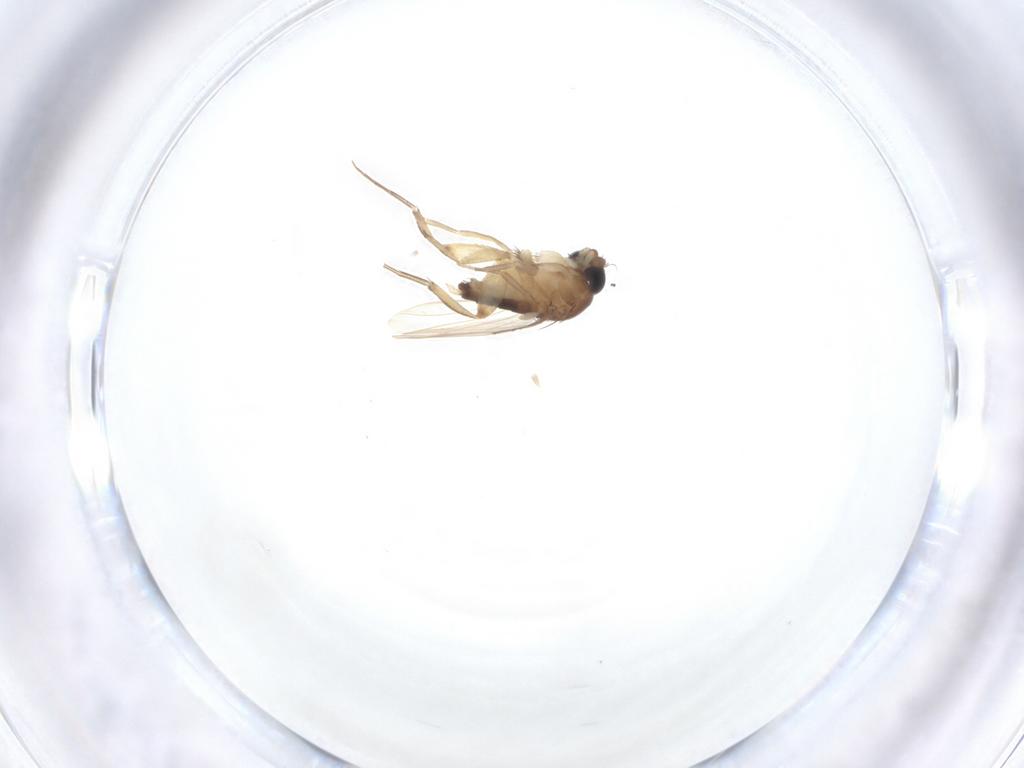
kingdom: Animalia
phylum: Arthropoda
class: Insecta
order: Diptera
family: Phoridae
